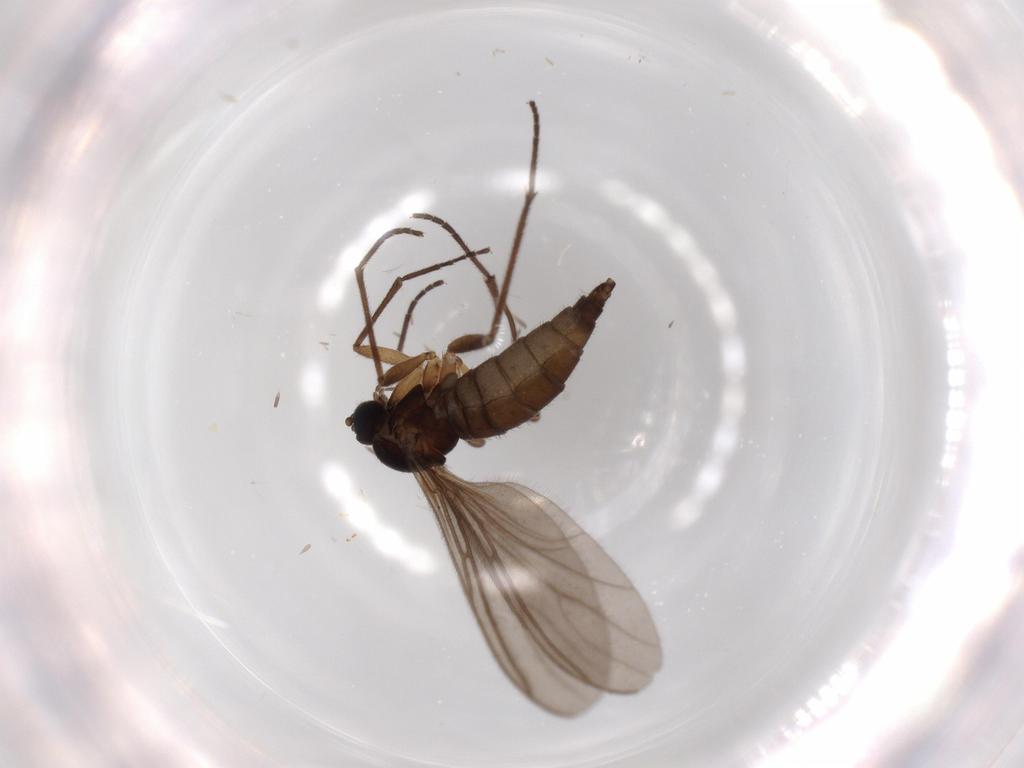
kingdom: Animalia
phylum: Arthropoda
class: Insecta
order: Diptera
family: Sciaridae
